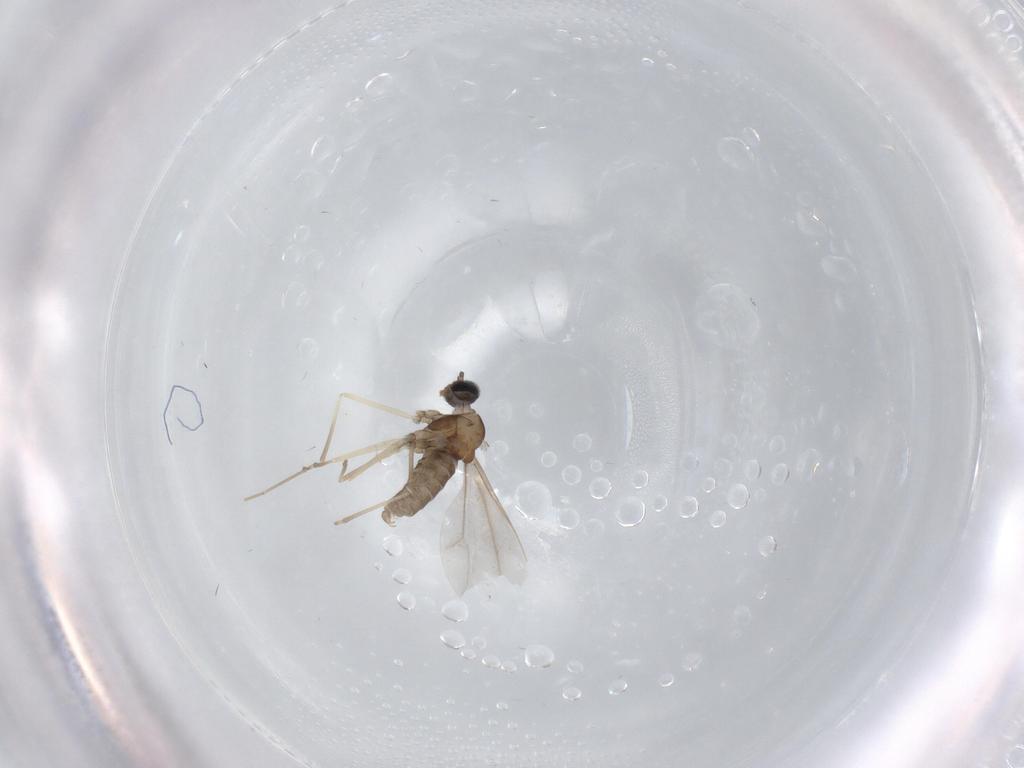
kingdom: Animalia
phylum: Arthropoda
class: Insecta
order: Diptera
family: Cecidomyiidae
